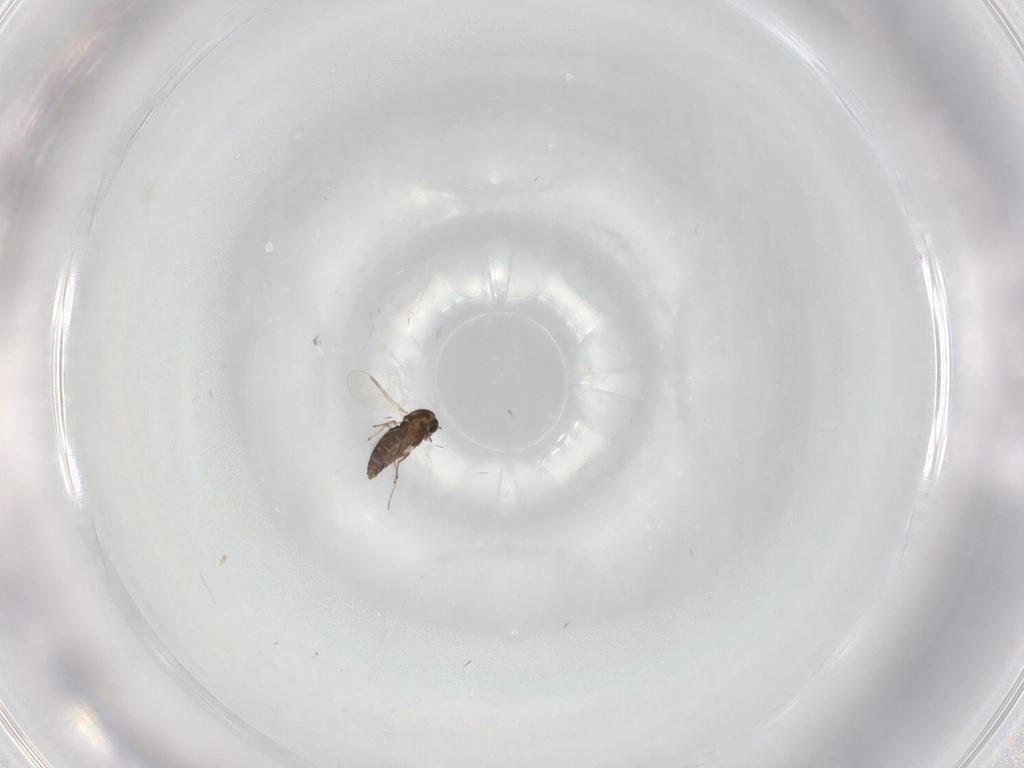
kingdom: Animalia
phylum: Arthropoda
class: Insecta
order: Diptera
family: Chironomidae
